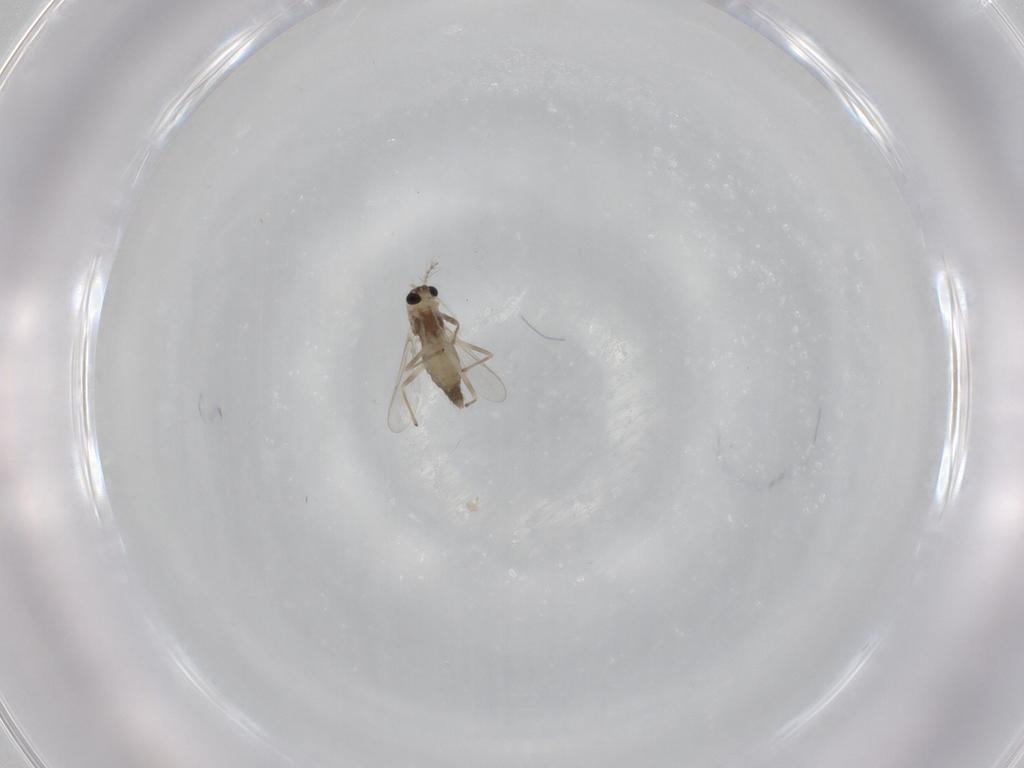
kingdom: Animalia
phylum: Arthropoda
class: Insecta
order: Diptera
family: Chironomidae
